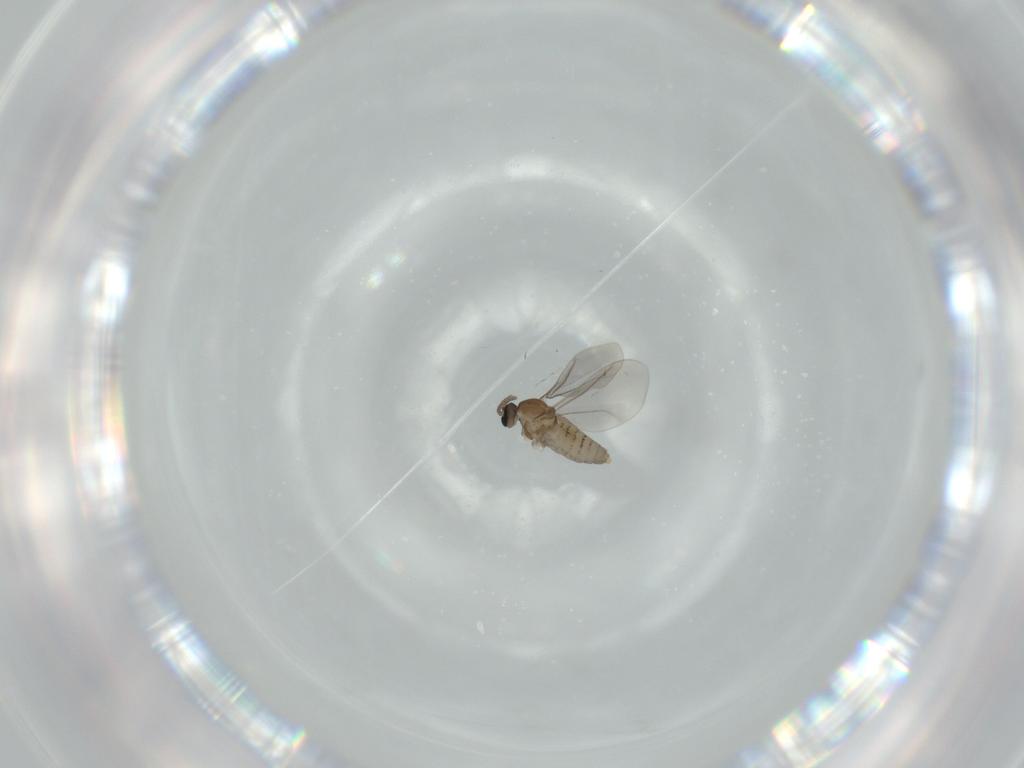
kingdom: Animalia
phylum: Arthropoda
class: Insecta
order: Diptera
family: Cecidomyiidae
